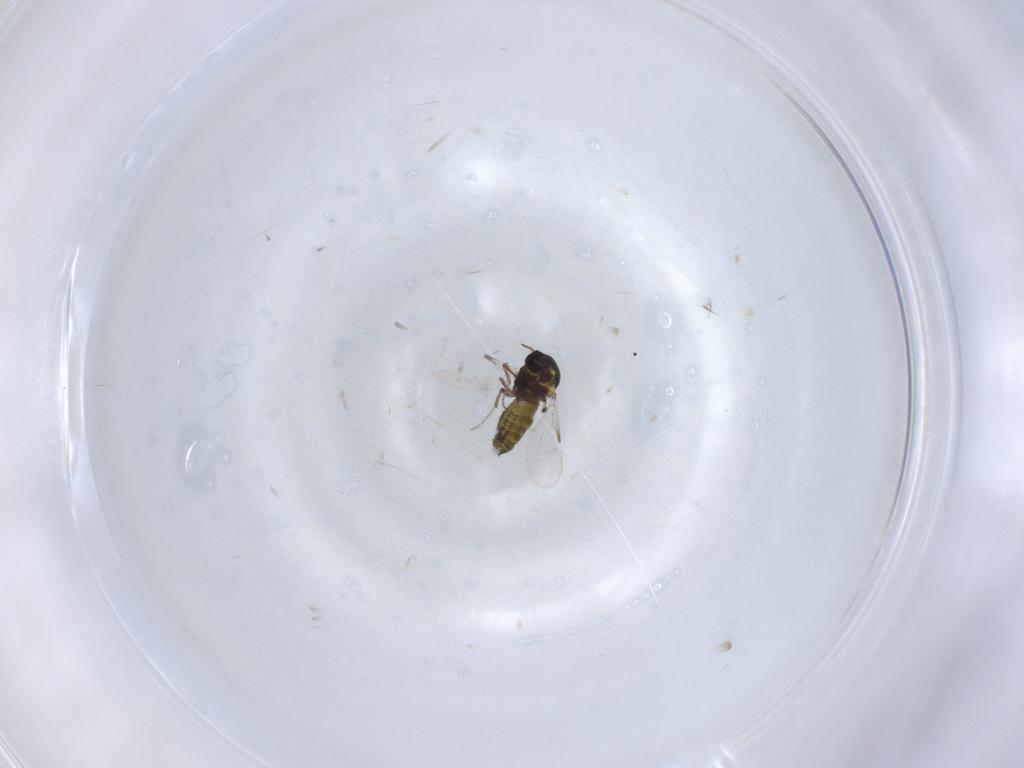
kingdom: Animalia
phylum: Arthropoda
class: Insecta
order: Diptera
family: Ceratopogonidae
